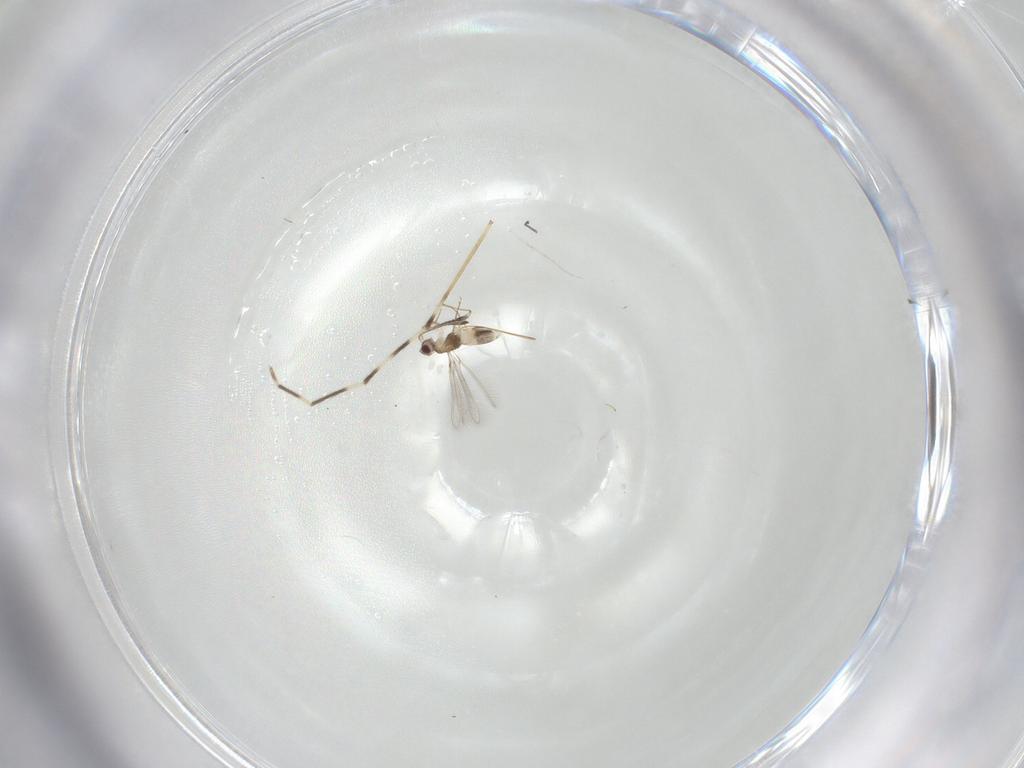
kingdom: Animalia
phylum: Arthropoda
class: Insecta
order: Hymenoptera
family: Mymaridae
